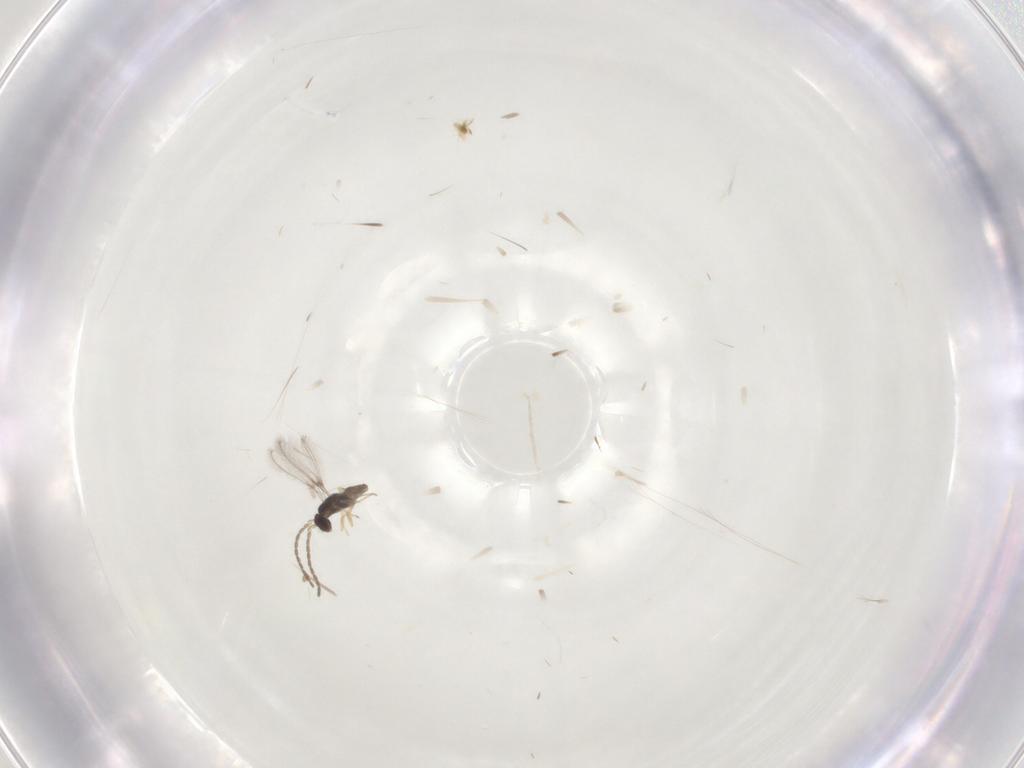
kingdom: Animalia
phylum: Arthropoda
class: Insecta
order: Hymenoptera
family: Mymaridae
